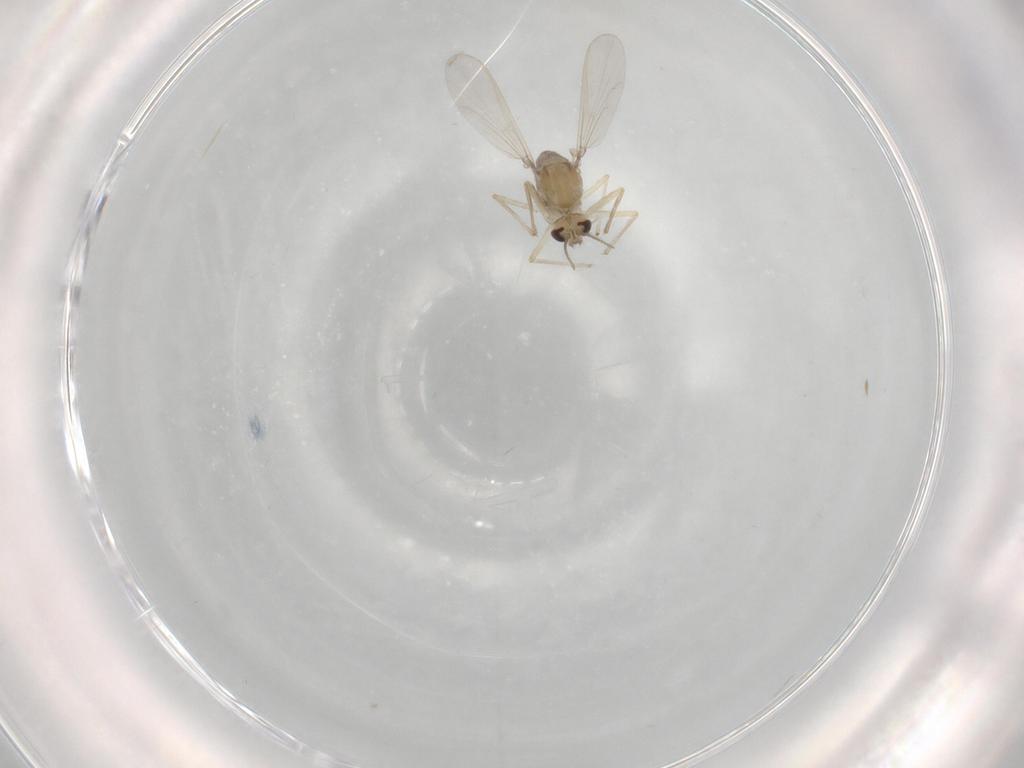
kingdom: Animalia
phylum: Arthropoda
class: Insecta
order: Diptera
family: Chironomidae
